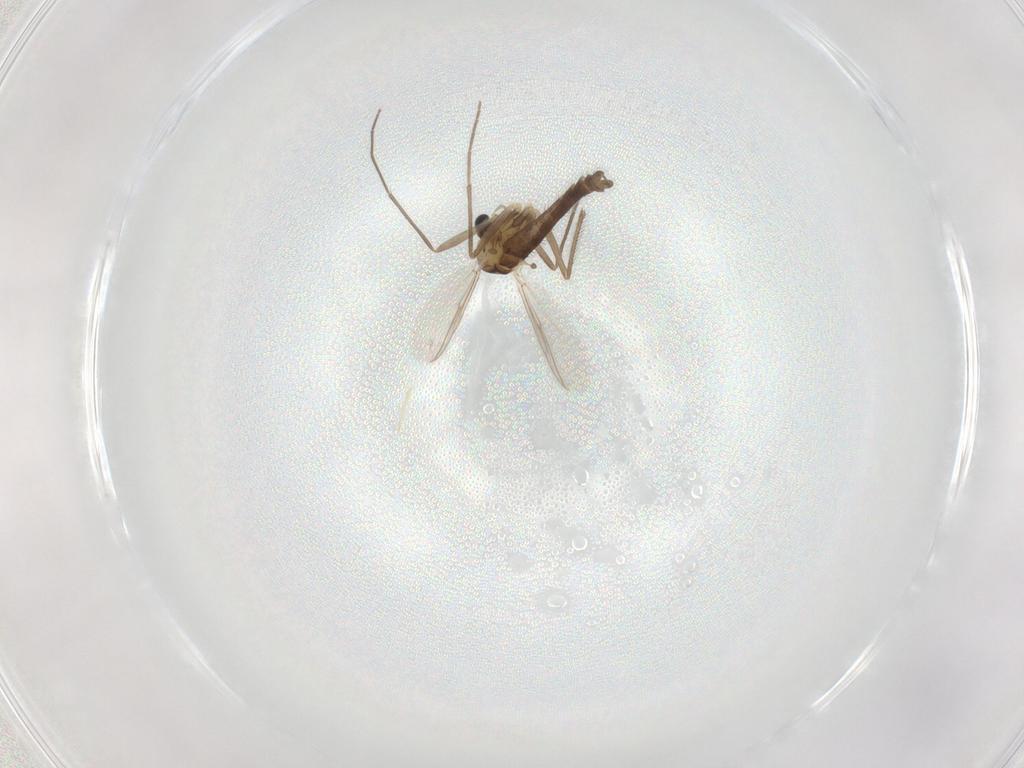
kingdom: Animalia
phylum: Arthropoda
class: Insecta
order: Diptera
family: Chironomidae
